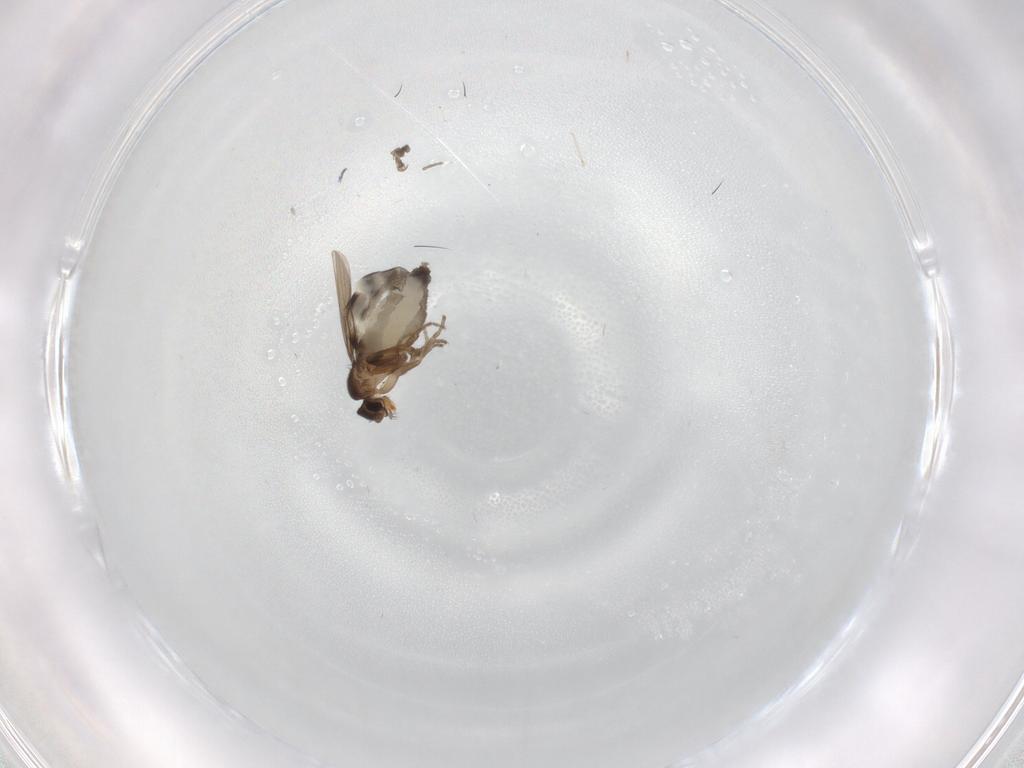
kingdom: Animalia
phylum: Arthropoda
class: Insecta
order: Diptera
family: Phoridae
